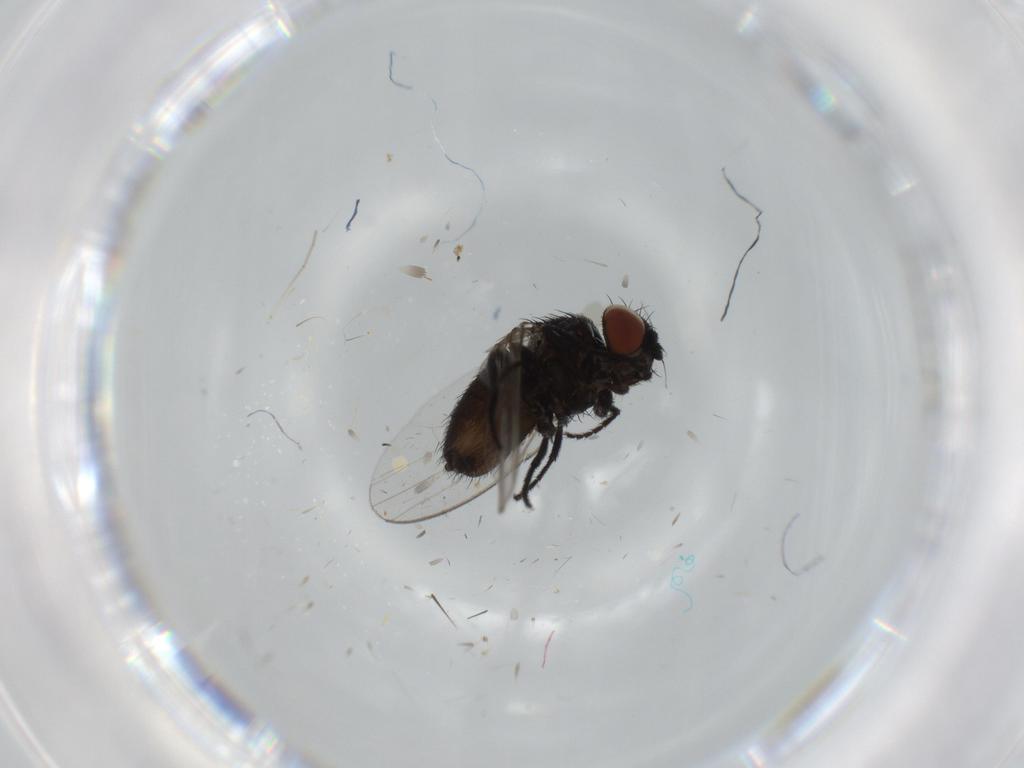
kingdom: Animalia
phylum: Arthropoda
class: Insecta
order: Diptera
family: Milichiidae
